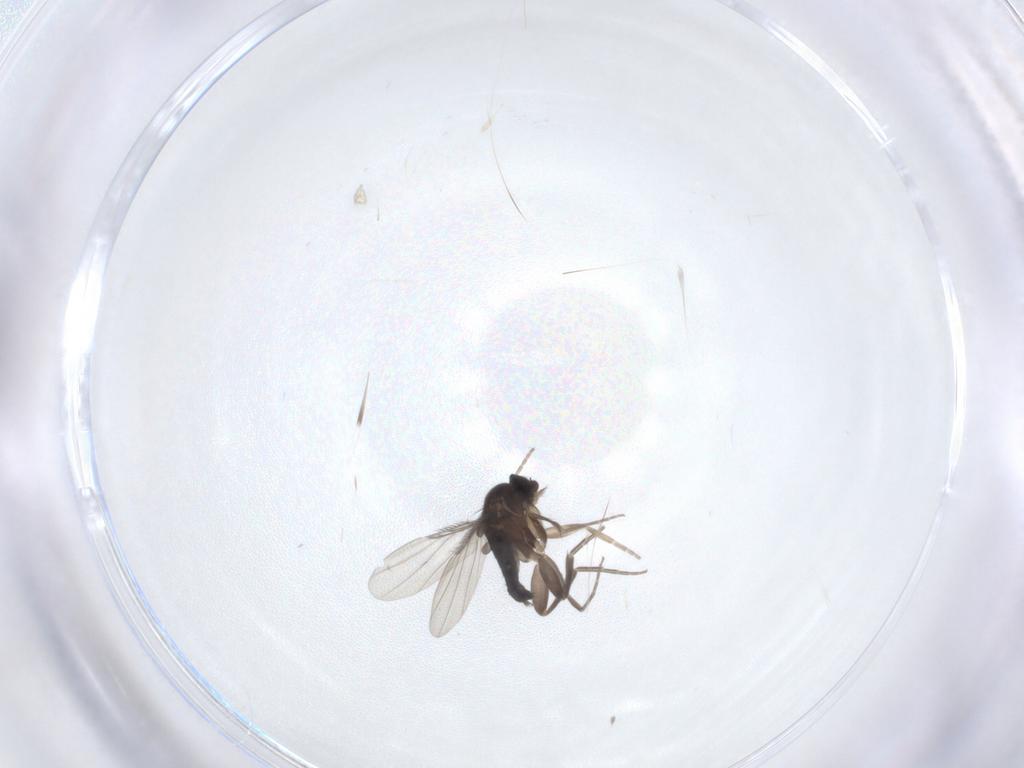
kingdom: Animalia
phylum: Arthropoda
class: Insecta
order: Diptera
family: Phoridae
